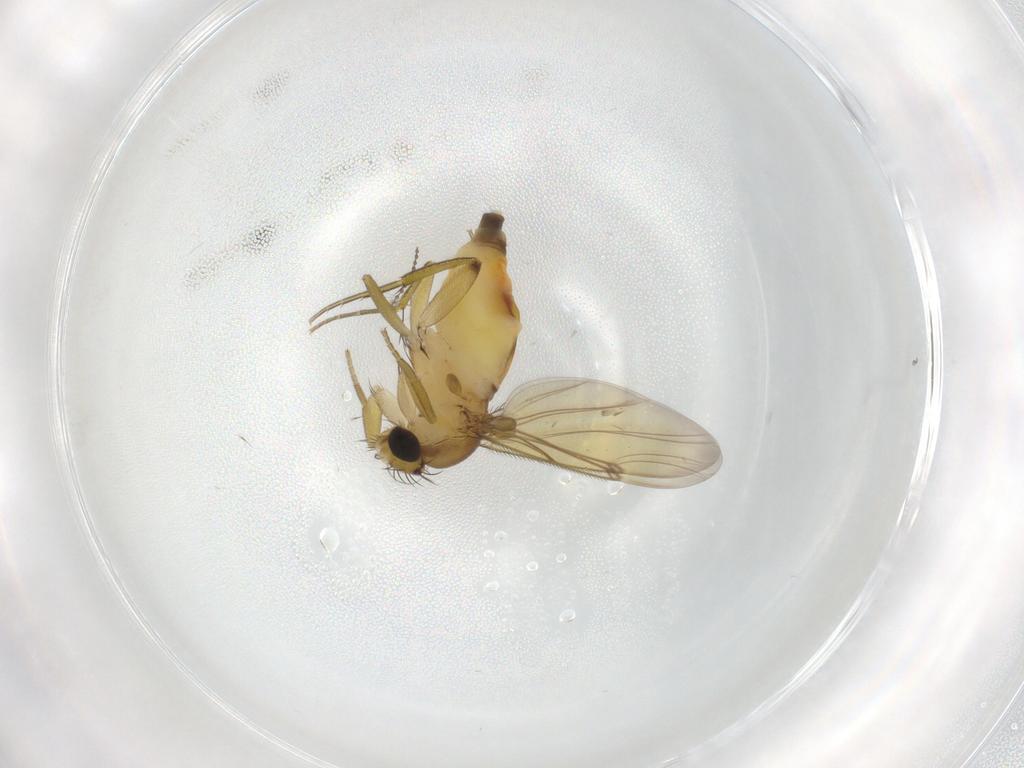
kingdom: Animalia
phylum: Arthropoda
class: Insecta
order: Diptera
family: Phoridae
